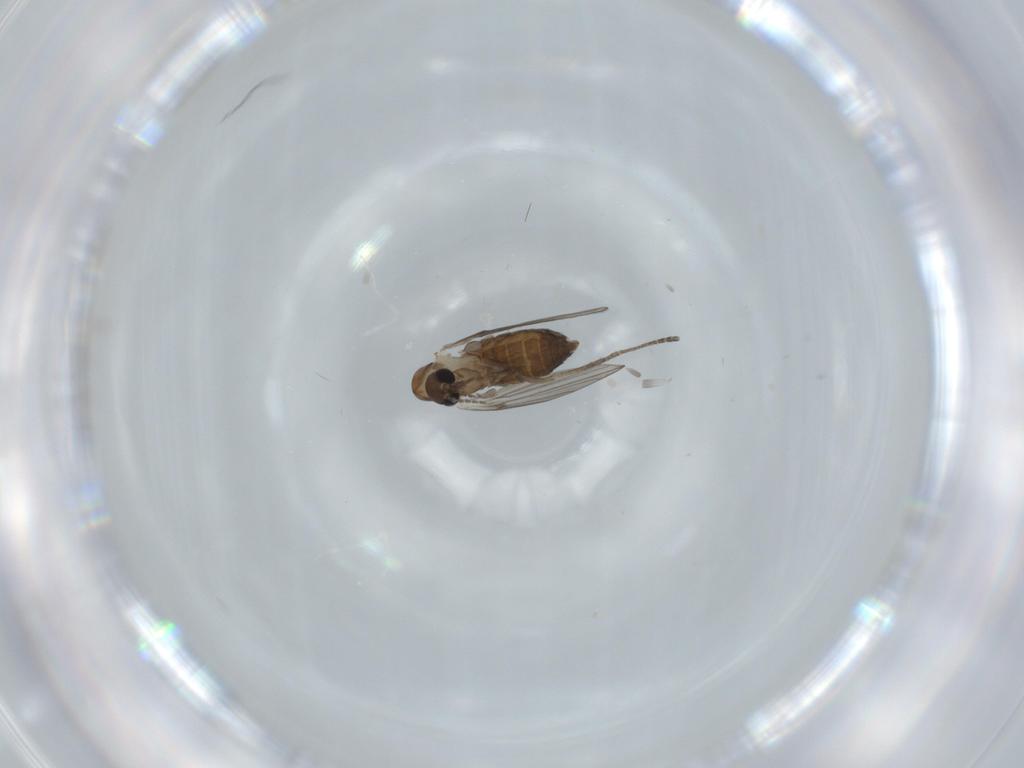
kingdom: Animalia
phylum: Arthropoda
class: Insecta
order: Diptera
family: Psychodidae
